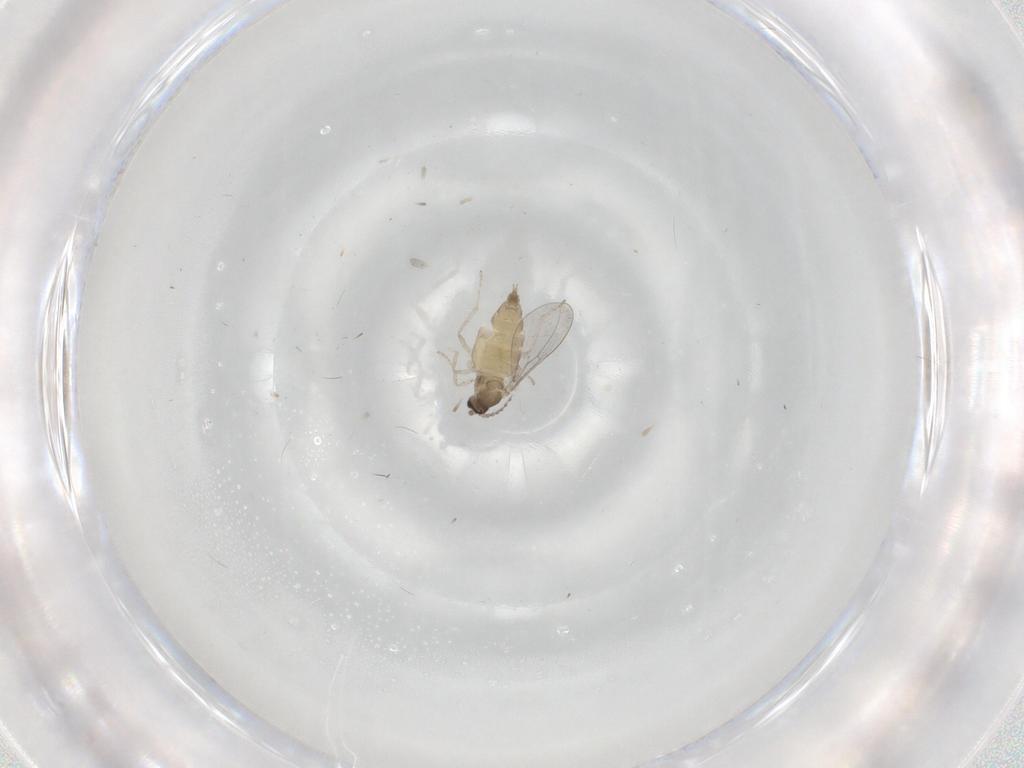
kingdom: Animalia
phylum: Arthropoda
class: Insecta
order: Diptera
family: Cecidomyiidae
